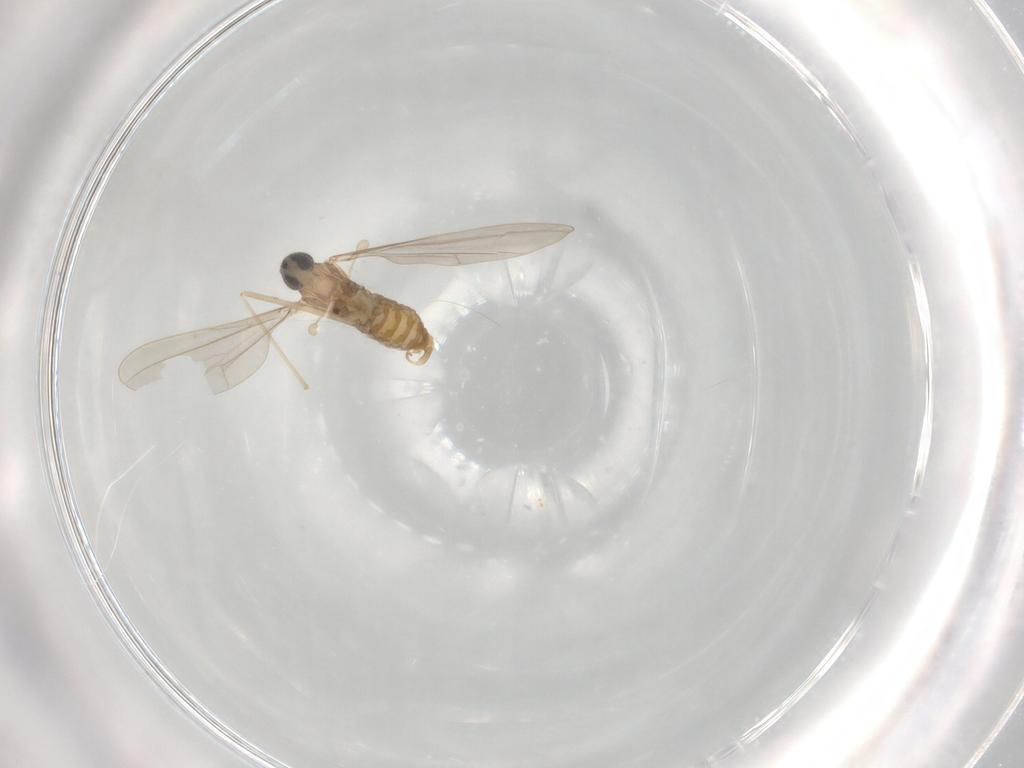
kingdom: Animalia
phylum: Arthropoda
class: Insecta
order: Diptera
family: Cecidomyiidae
